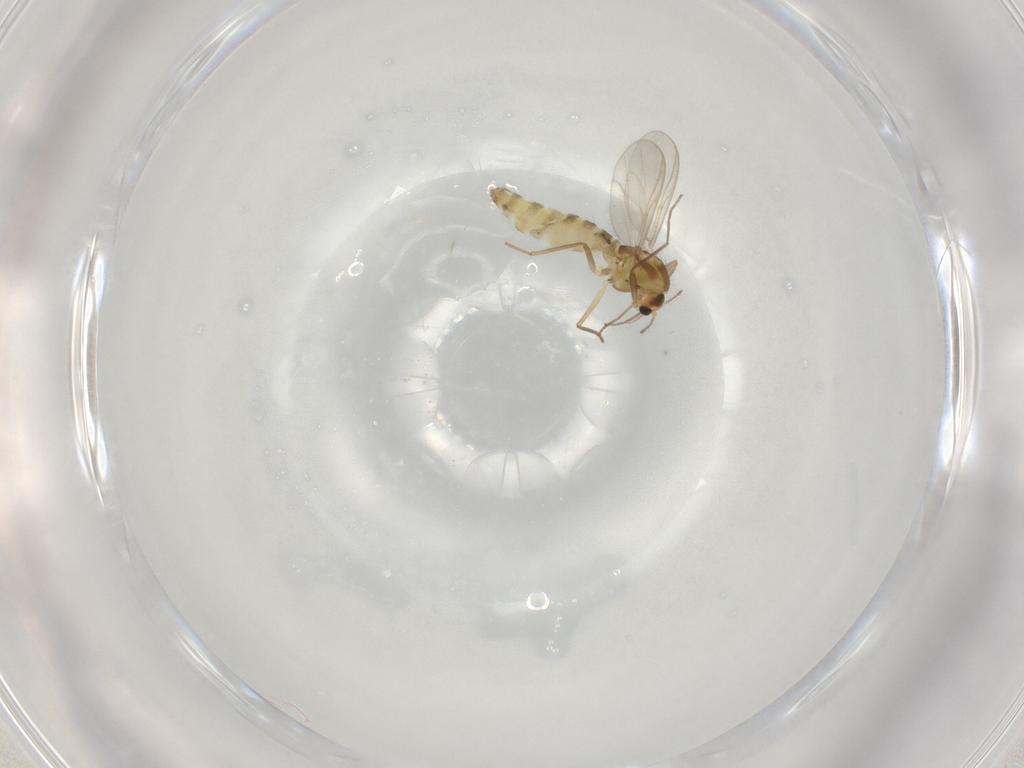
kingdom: Animalia
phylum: Arthropoda
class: Insecta
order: Diptera
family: Chironomidae
